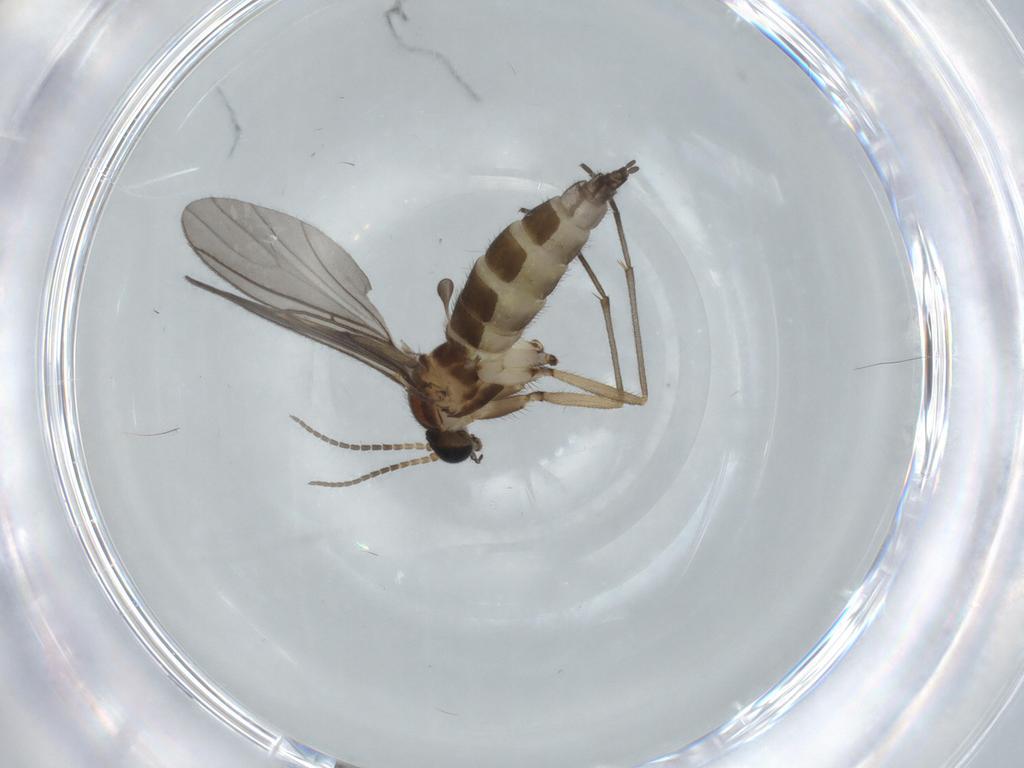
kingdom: Animalia
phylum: Arthropoda
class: Insecta
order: Diptera
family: Sciaridae
